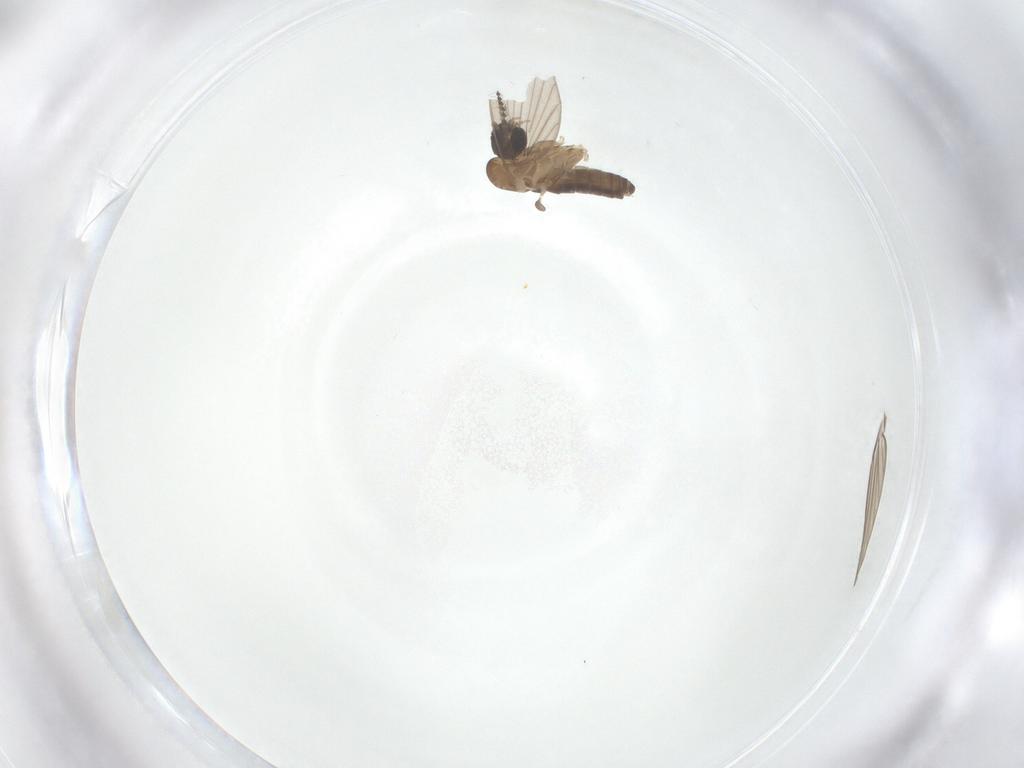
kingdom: Animalia
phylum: Arthropoda
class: Insecta
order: Diptera
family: Ditomyiidae
